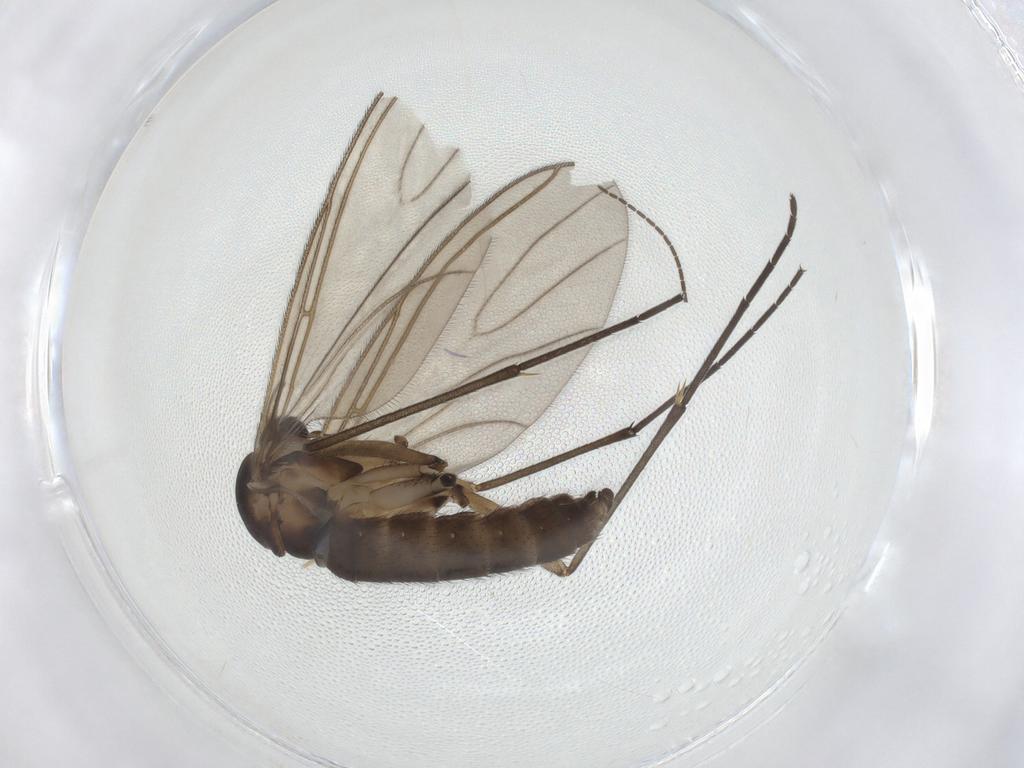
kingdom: Animalia
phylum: Arthropoda
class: Insecta
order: Diptera
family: Sciaridae
